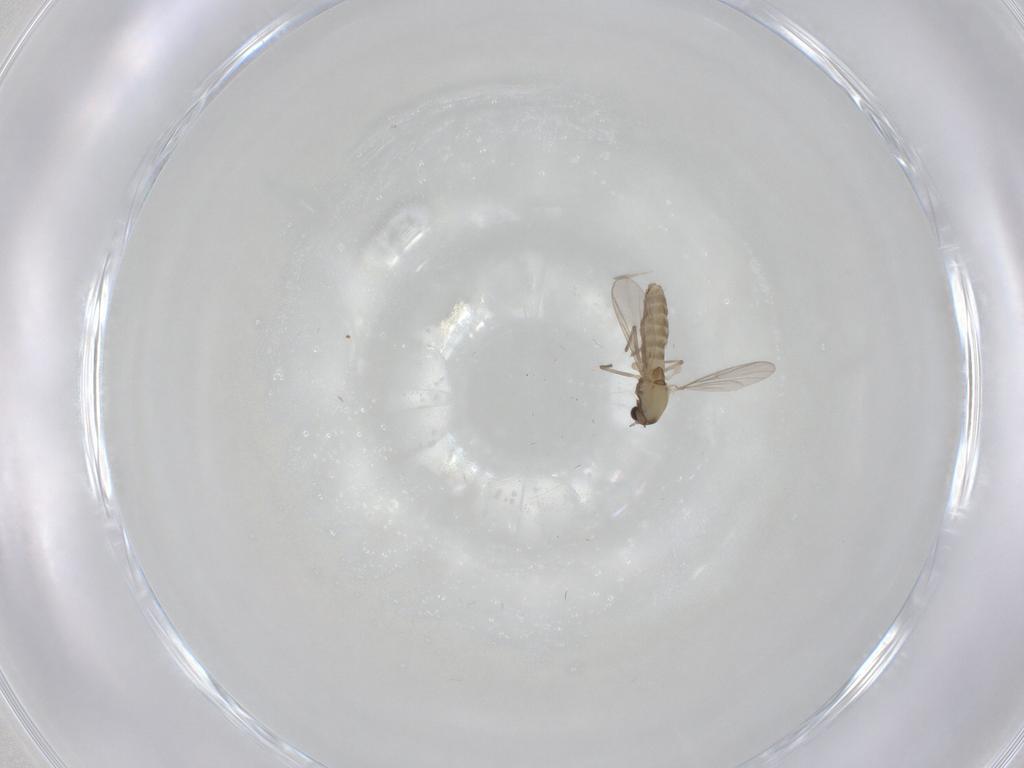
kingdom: Animalia
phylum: Arthropoda
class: Insecta
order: Diptera
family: Chironomidae
